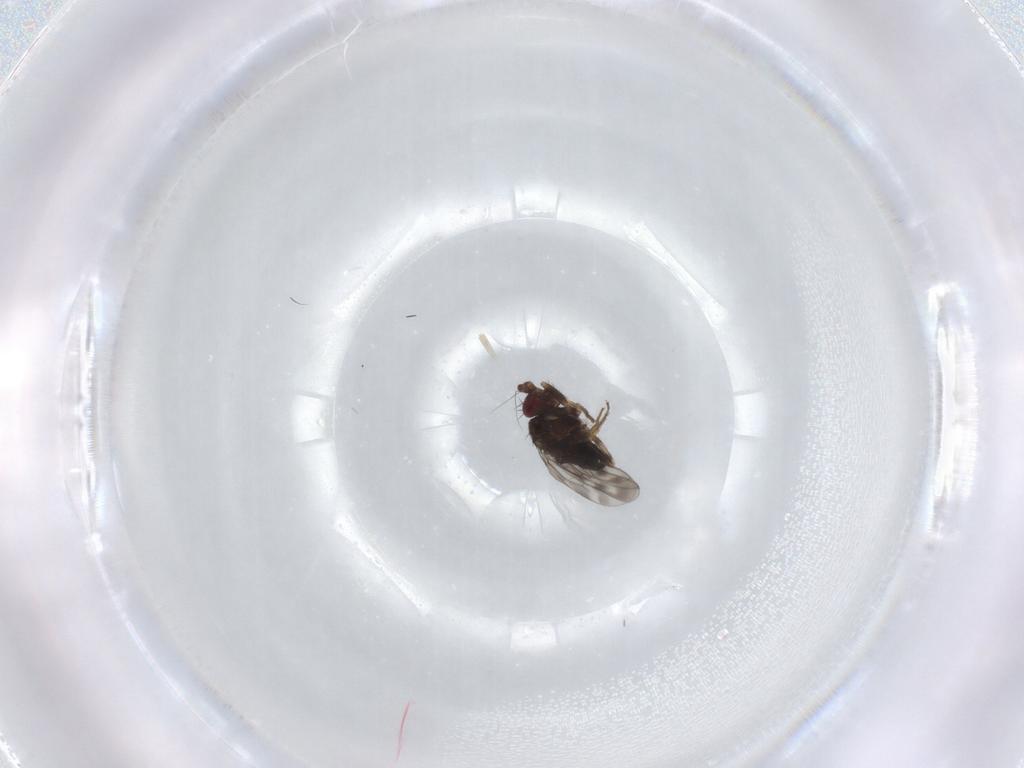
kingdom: Animalia
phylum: Arthropoda
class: Insecta
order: Diptera
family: Sphaeroceridae
